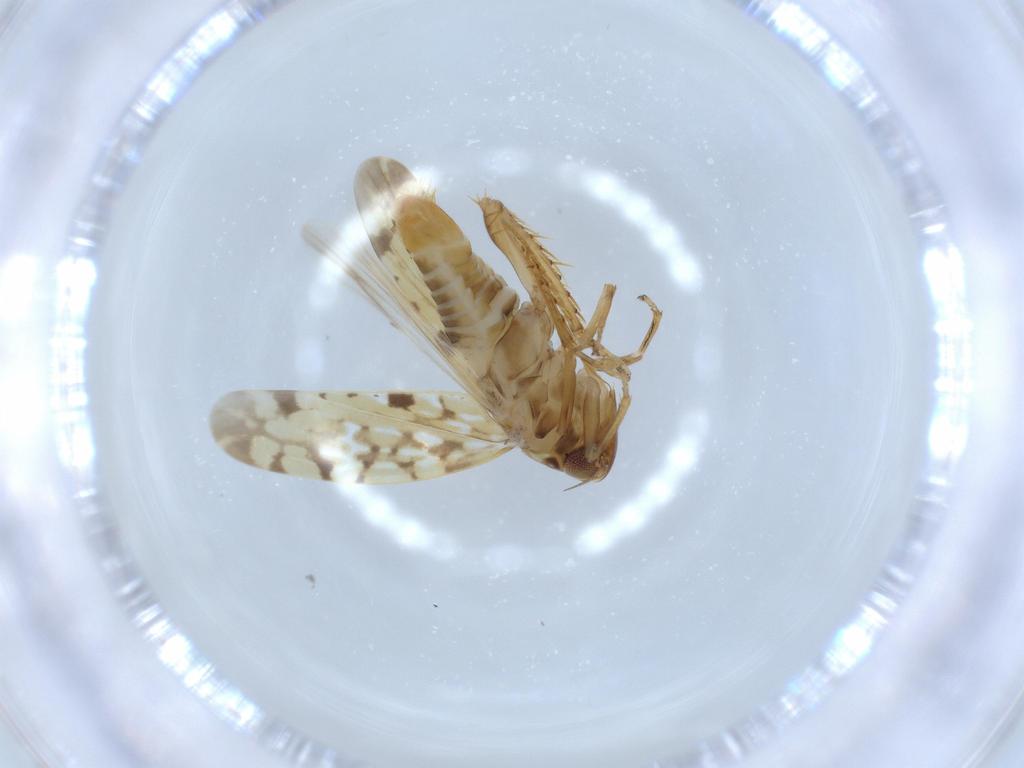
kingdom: Animalia
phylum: Arthropoda
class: Insecta
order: Hemiptera
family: Cicadellidae
